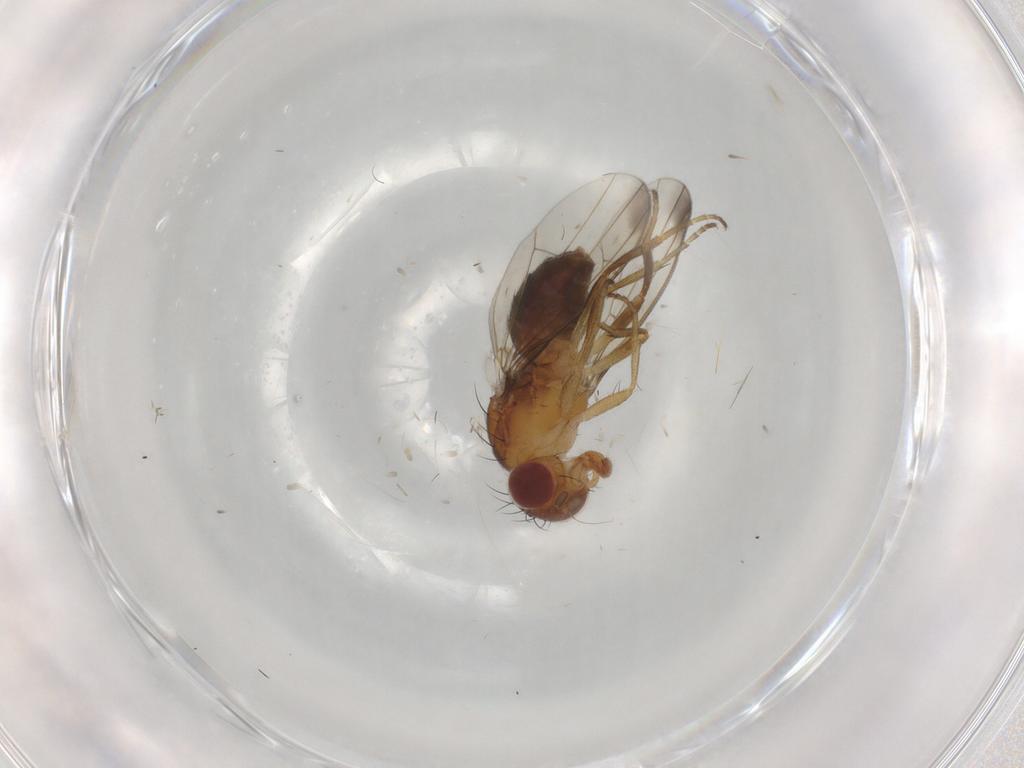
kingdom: Animalia
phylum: Arthropoda
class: Insecta
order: Diptera
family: Piophilidae
